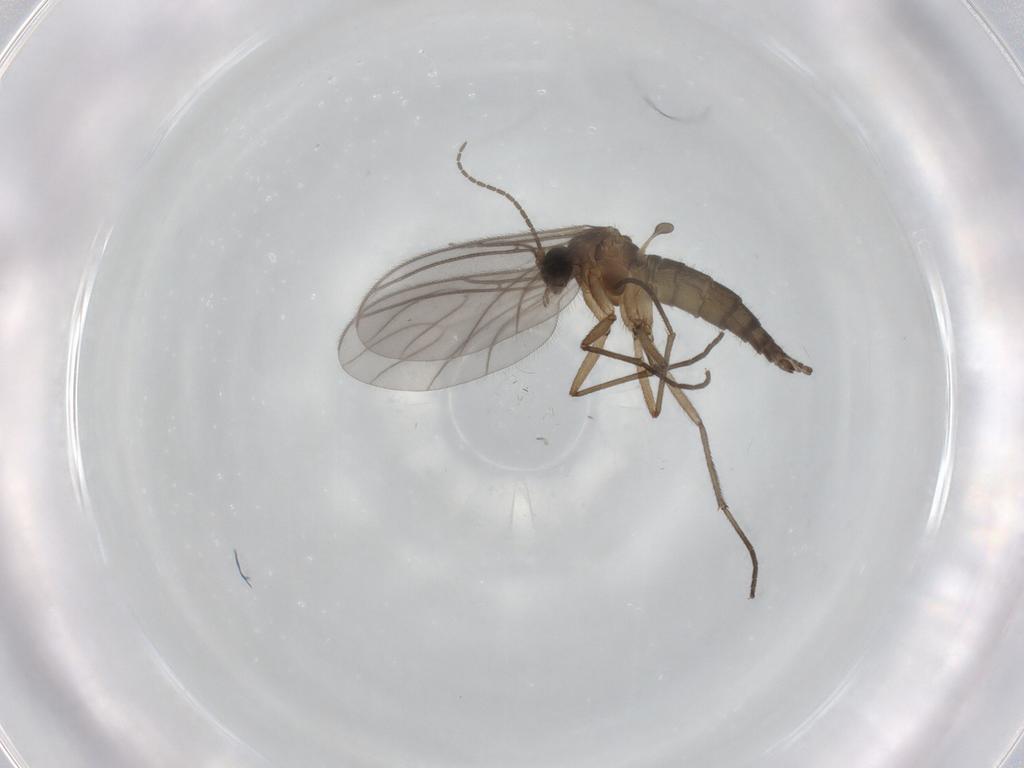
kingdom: Animalia
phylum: Arthropoda
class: Insecta
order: Diptera
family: Sciaridae
